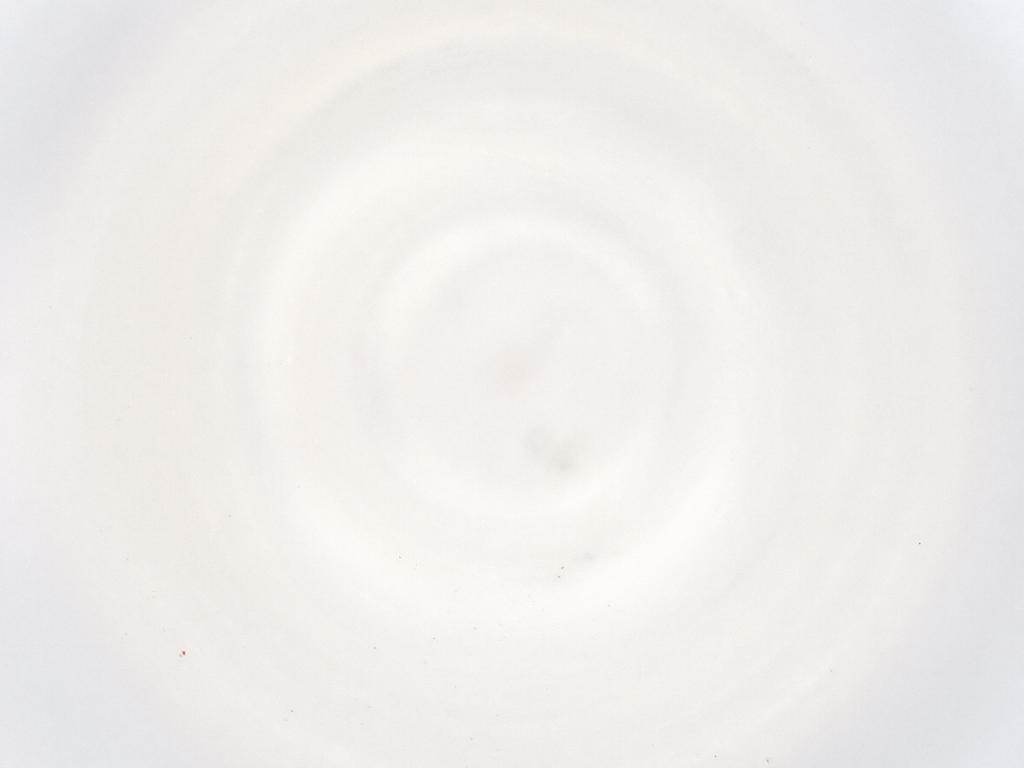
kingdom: Animalia
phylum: Arthropoda
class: Insecta
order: Diptera
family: Phoridae
